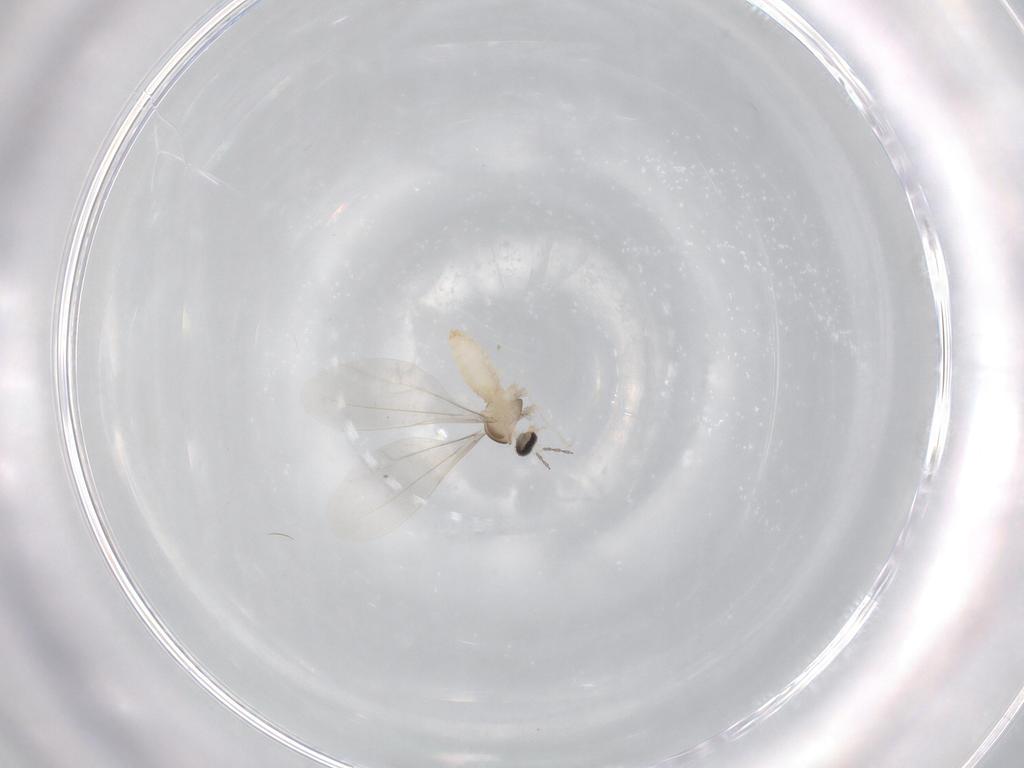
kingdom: Animalia
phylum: Arthropoda
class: Insecta
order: Diptera
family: Cecidomyiidae
